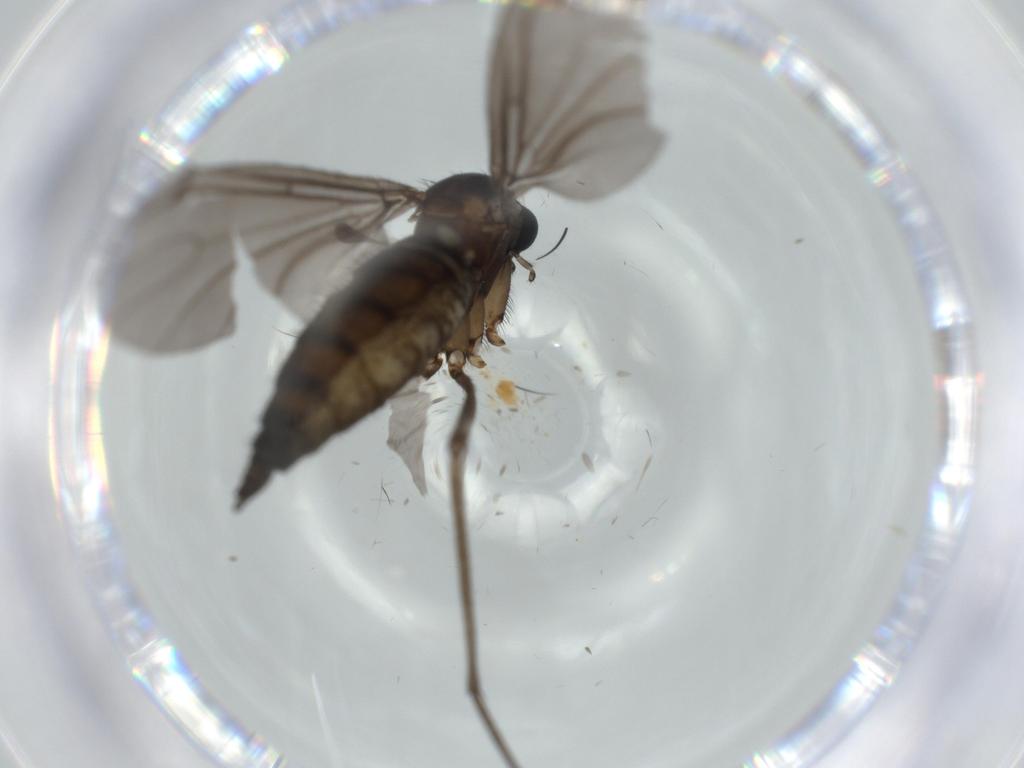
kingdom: Animalia
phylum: Arthropoda
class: Insecta
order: Diptera
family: Sciaridae
